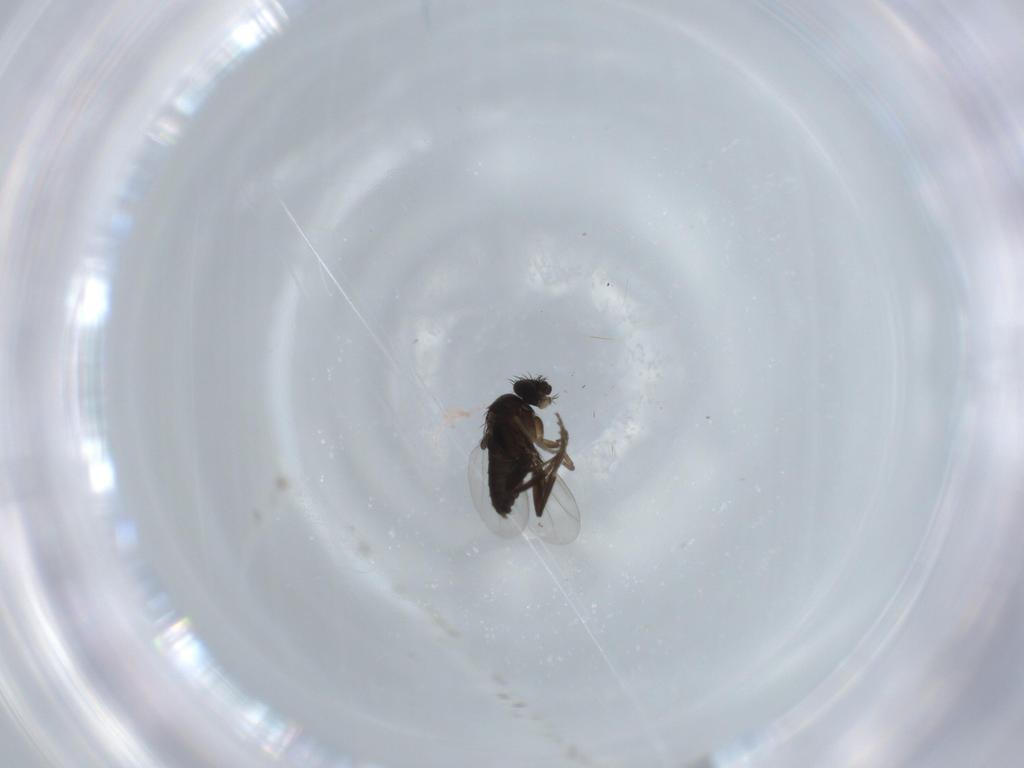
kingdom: Animalia
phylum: Arthropoda
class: Insecta
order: Diptera
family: Phoridae
